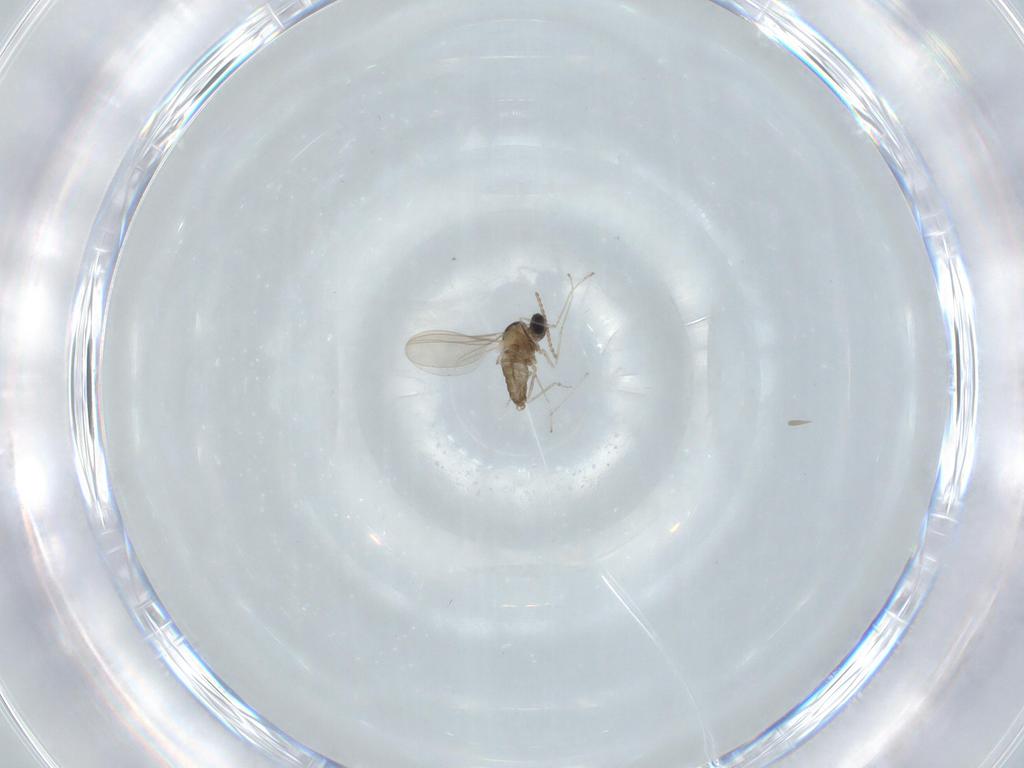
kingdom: Animalia
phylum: Arthropoda
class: Insecta
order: Diptera
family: Cecidomyiidae
